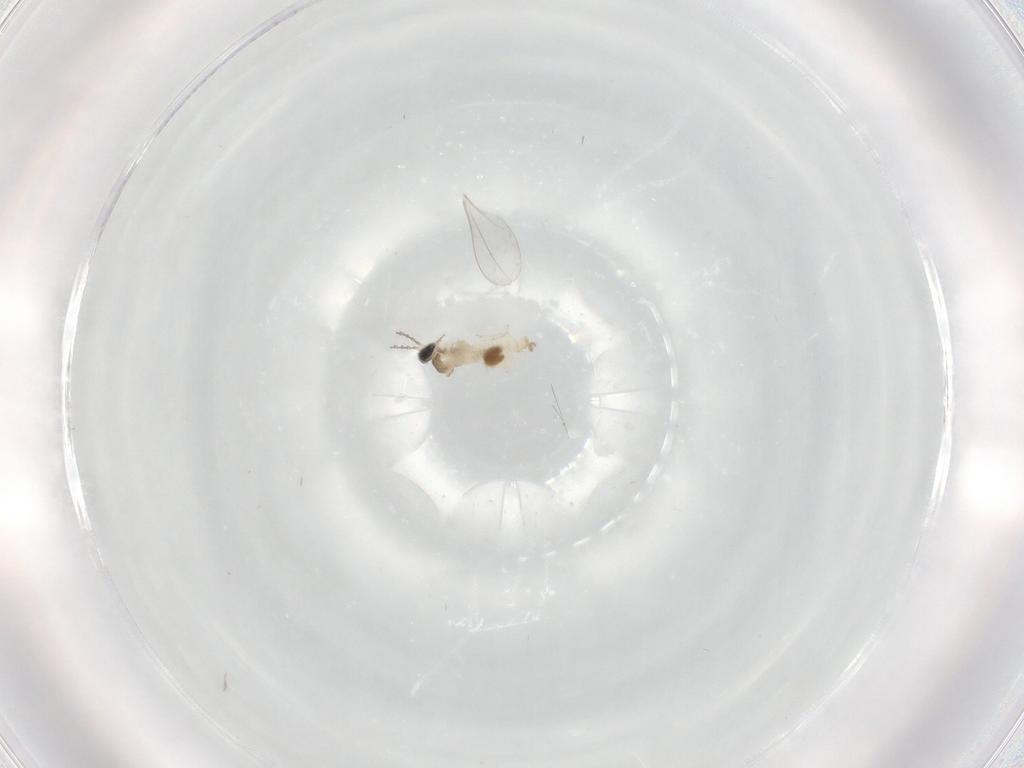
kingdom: Animalia
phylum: Arthropoda
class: Insecta
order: Diptera
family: Cecidomyiidae
